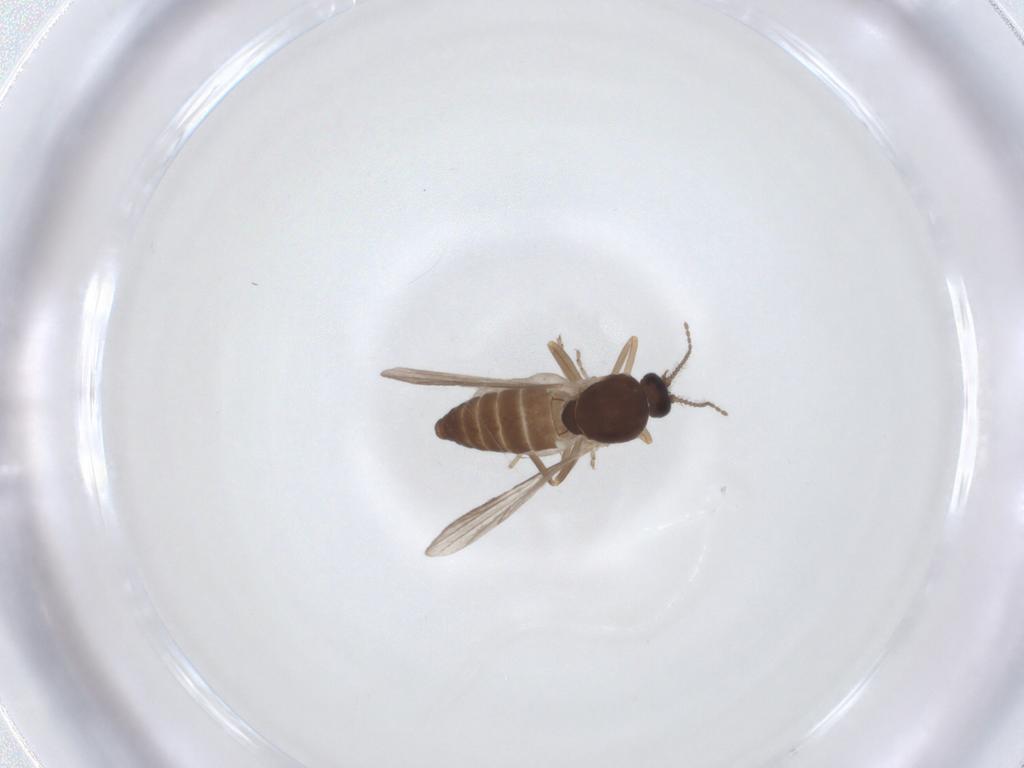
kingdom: Animalia
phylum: Arthropoda
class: Insecta
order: Diptera
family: Ceratopogonidae
